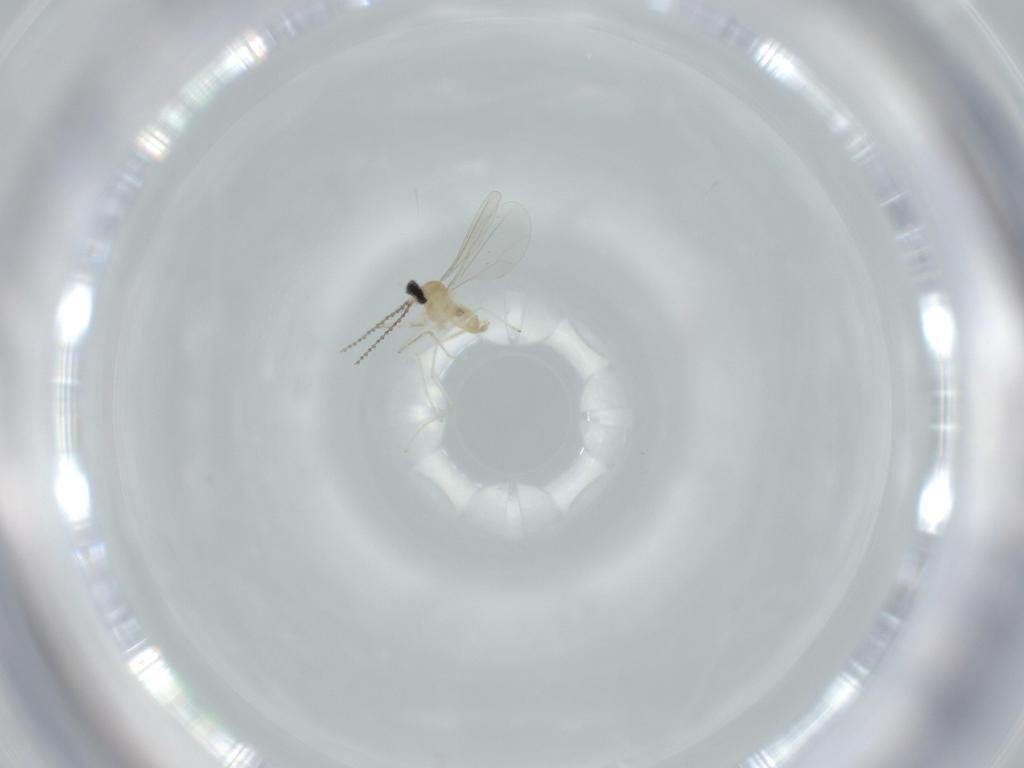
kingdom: Animalia
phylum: Arthropoda
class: Insecta
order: Diptera
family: Cecidomyiidae
